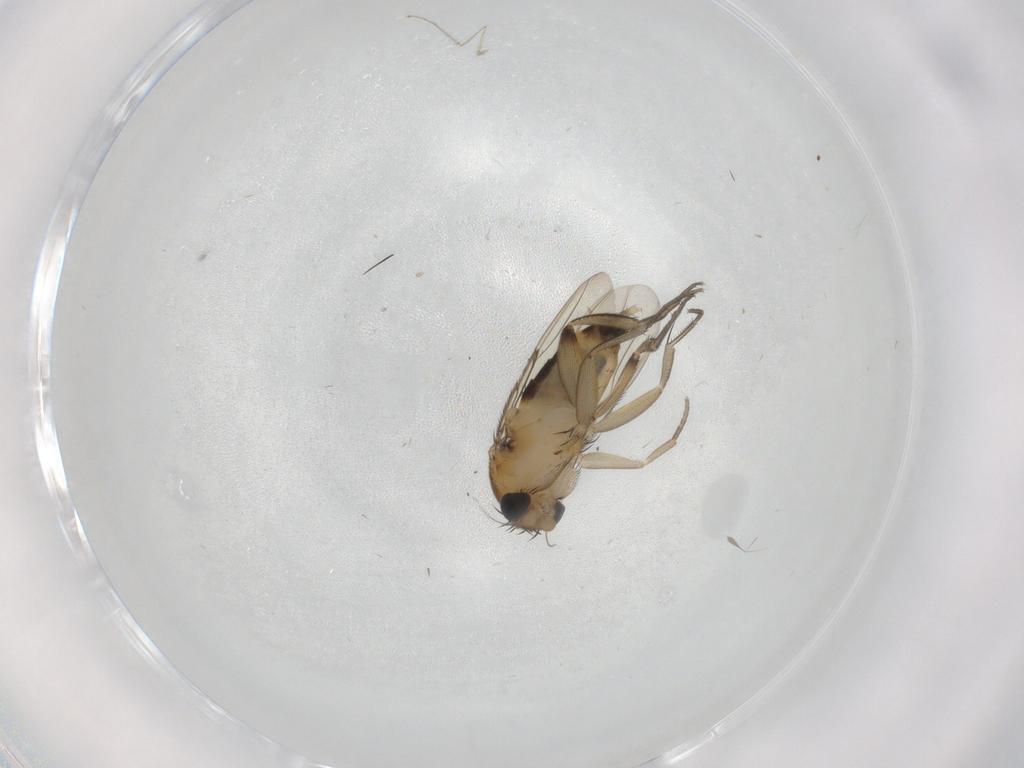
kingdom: Animalia
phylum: Arthropoda
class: Insecta
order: Diptera
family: Phoridae
